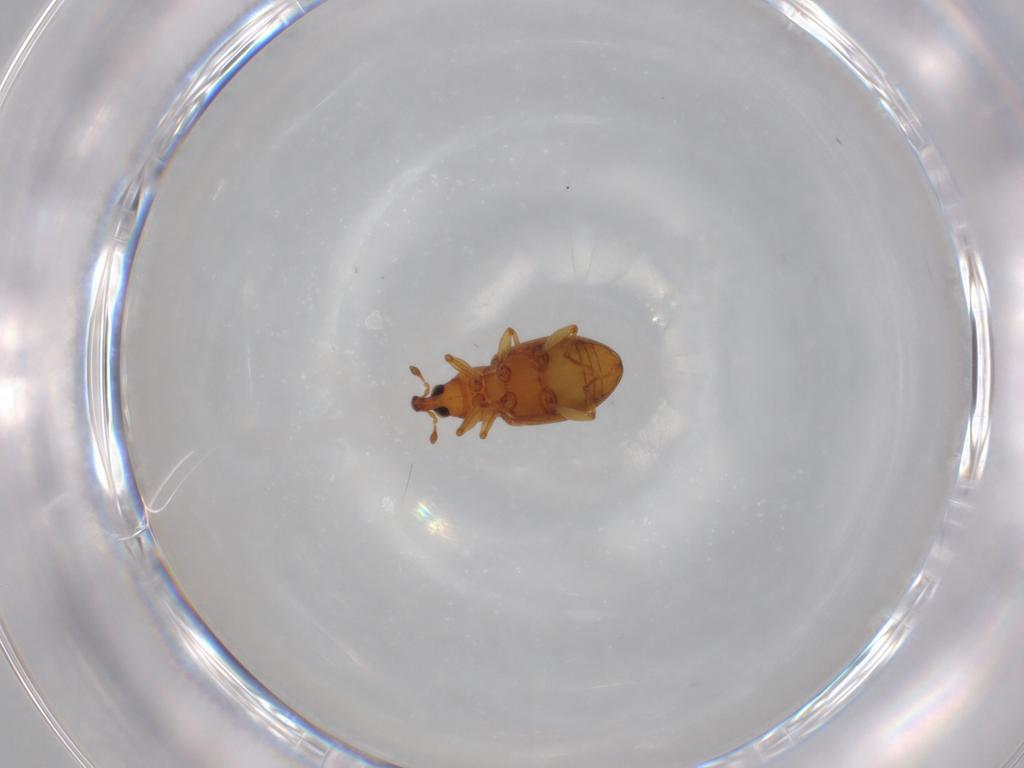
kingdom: Animalia
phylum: Arthropoda
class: Insecta
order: Coleoptera
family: Curculionidae
